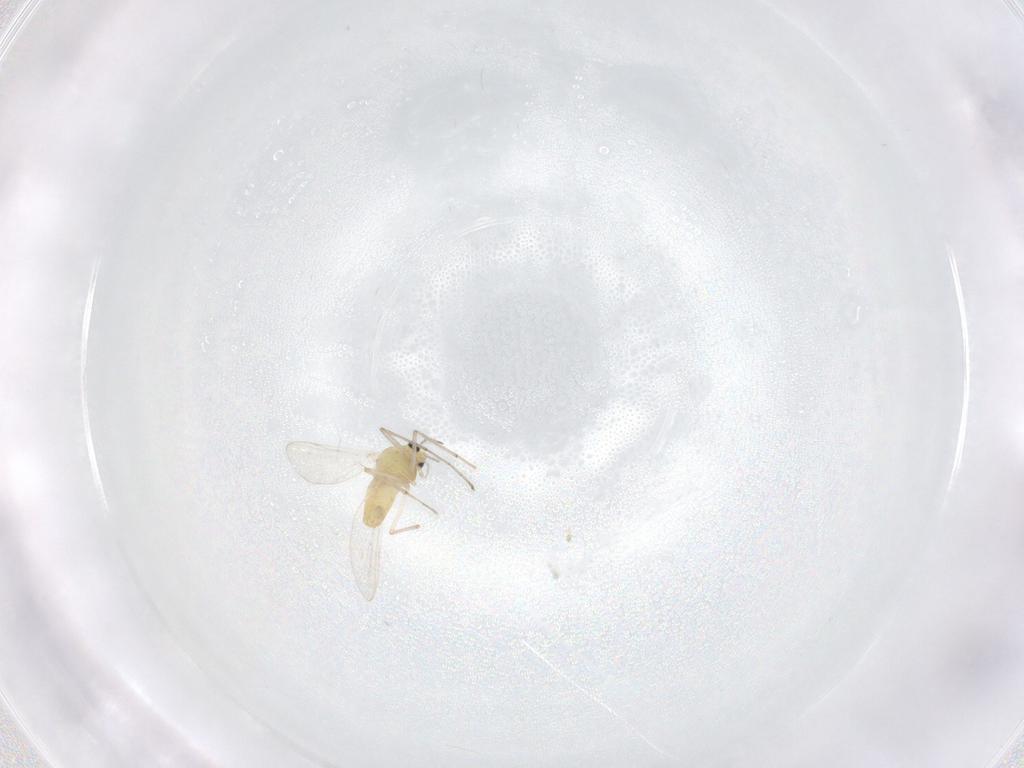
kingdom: Animalia
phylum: Arthropoda
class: Insecta
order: Diptera
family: Chironomidae
